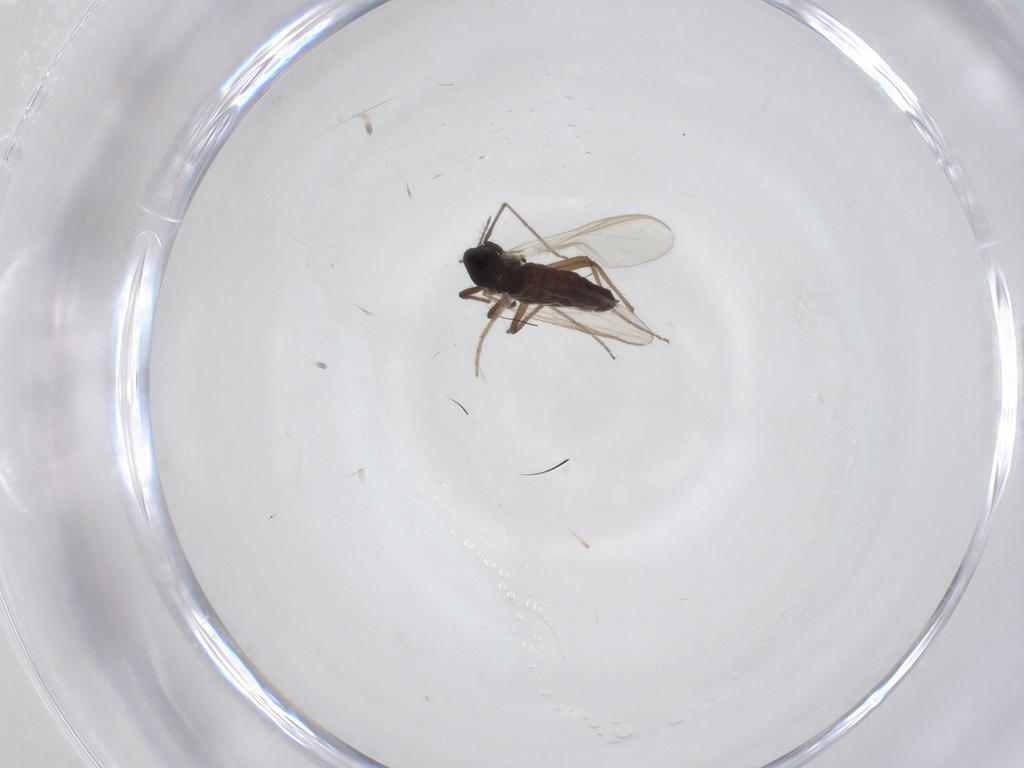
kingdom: Animalia
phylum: Arthropoda
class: Insecta
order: Diptera
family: Chironomidae
